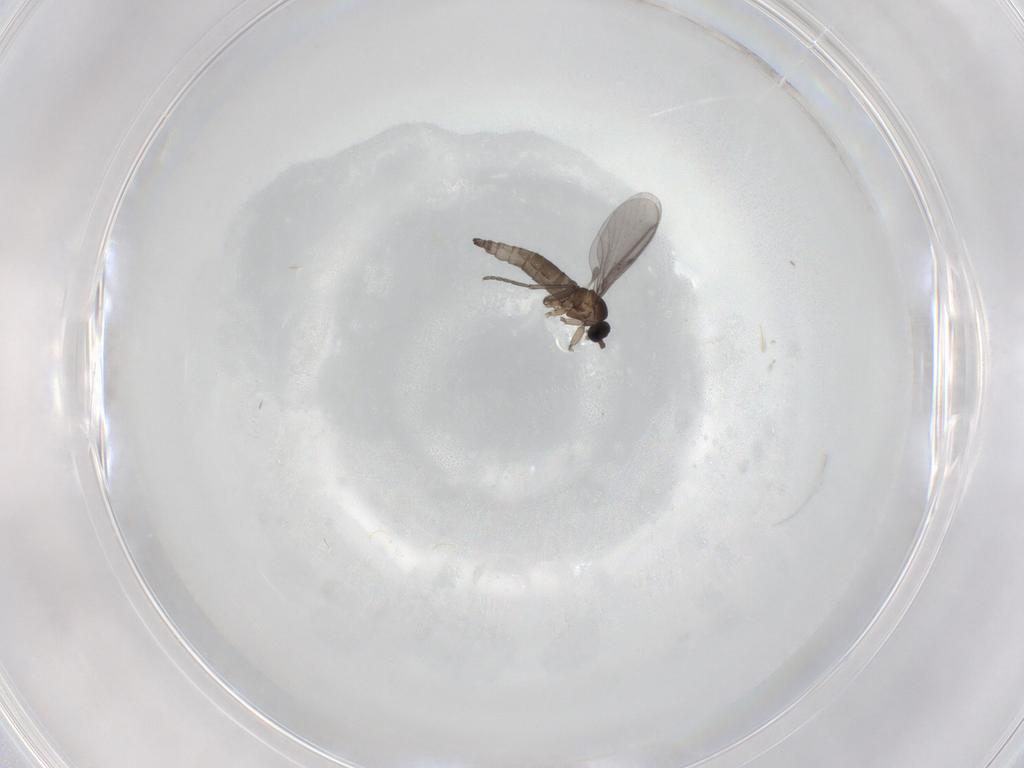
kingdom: Animalia
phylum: Arthropoda
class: Insecta
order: Diptera
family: Sciaridae
